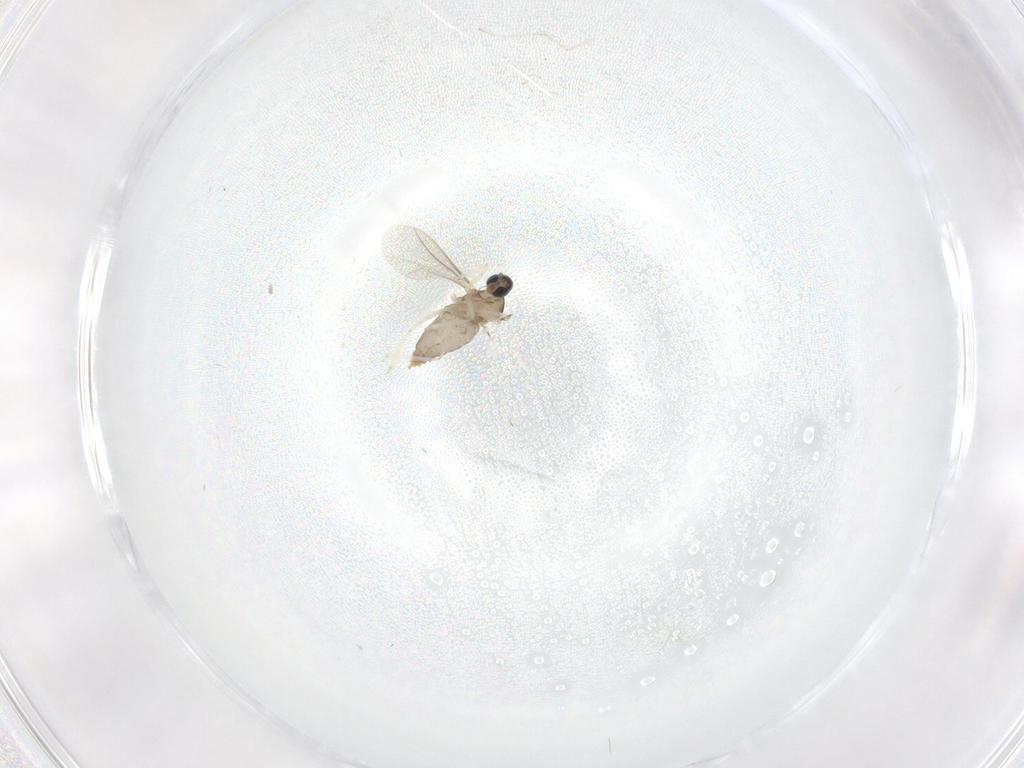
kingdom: Animalia
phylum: Arthropoda
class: Insecta
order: Diptera
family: Cecidomyiidae
